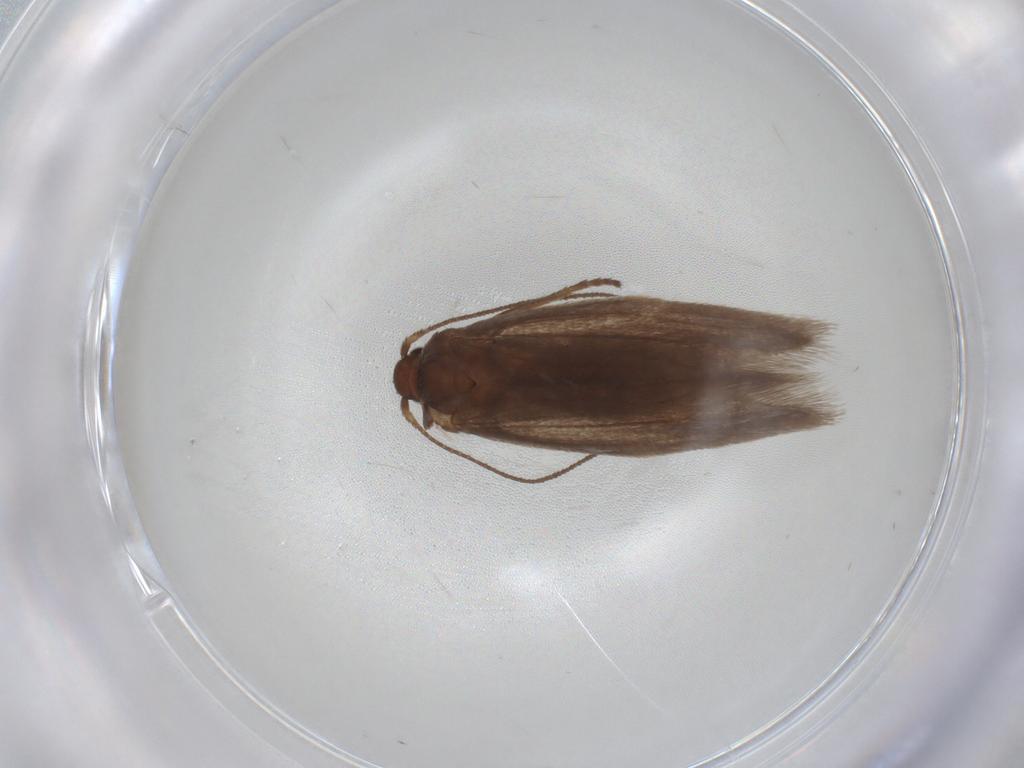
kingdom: Animalia
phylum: Arthropoda
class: Insecta
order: Lepidoptera
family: Limacodidae
